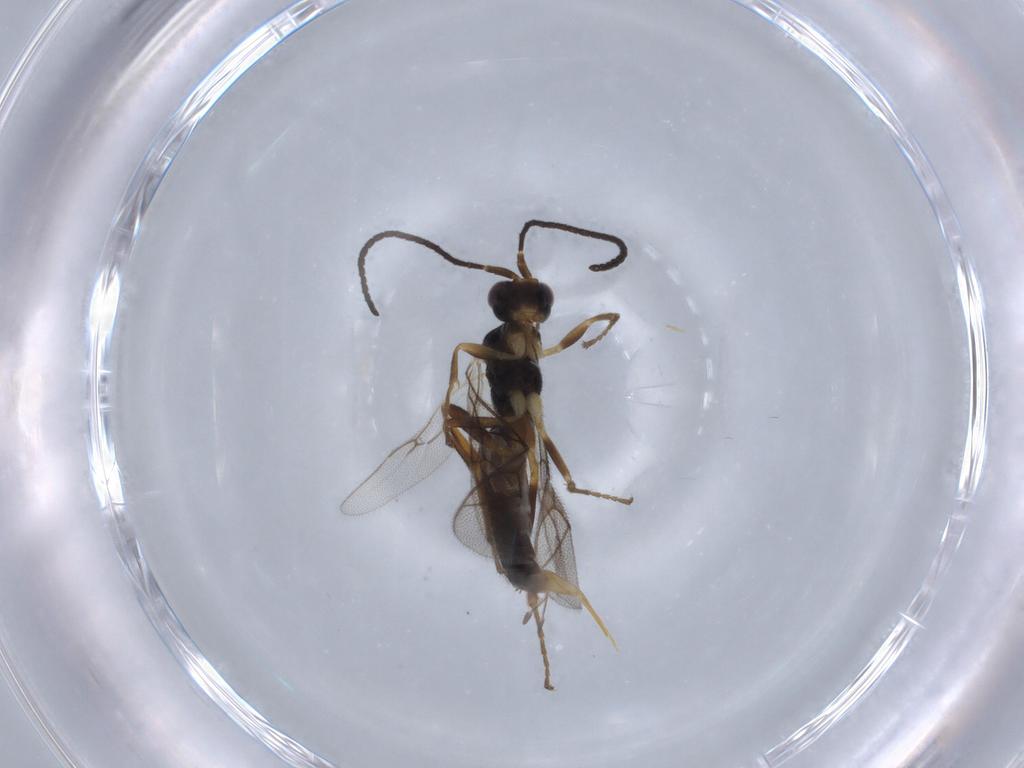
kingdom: Animalia
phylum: Arthropoda
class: Insecta
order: Hymenoptera
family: Ichneumonidae
